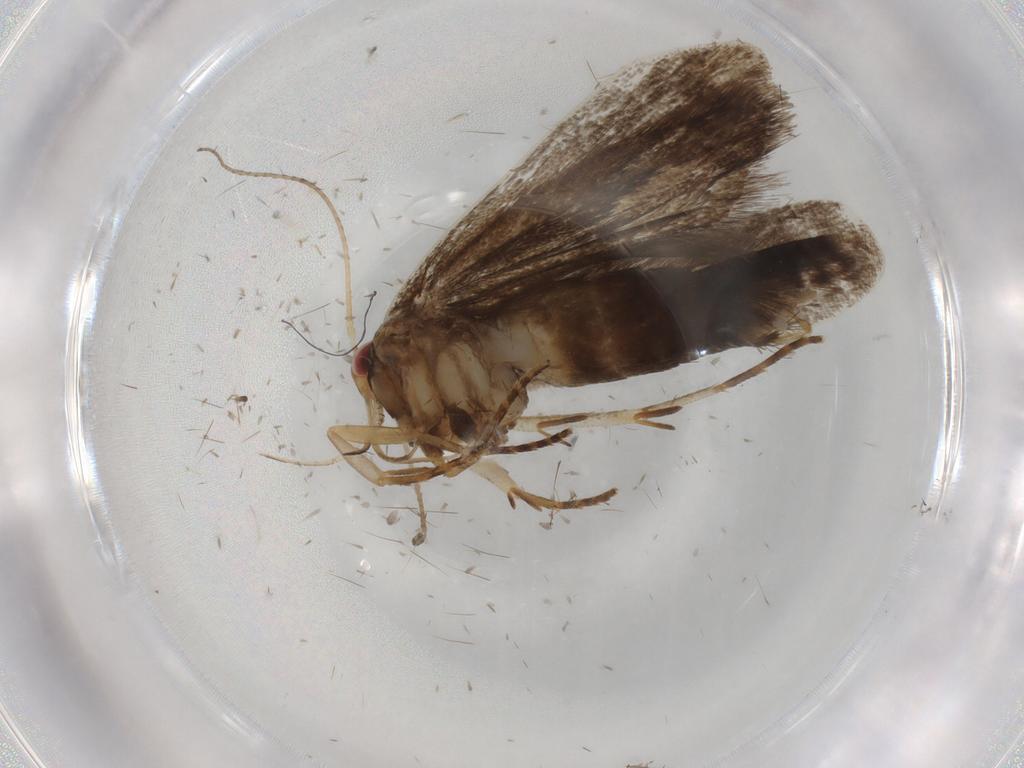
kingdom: Animalia
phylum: Arthropoda
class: Insecta
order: Lepidoptera
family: Gelechiidae
